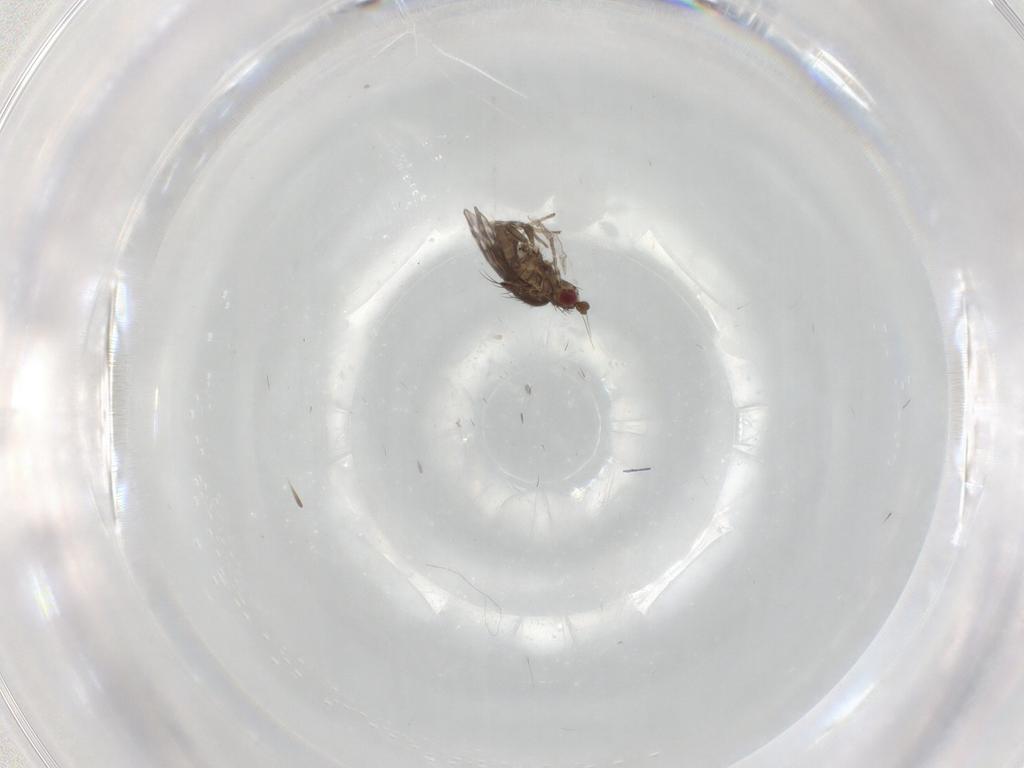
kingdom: Animalia
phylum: Arthropoda
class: Insecta
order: Diptera
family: Sphaeroceridae
